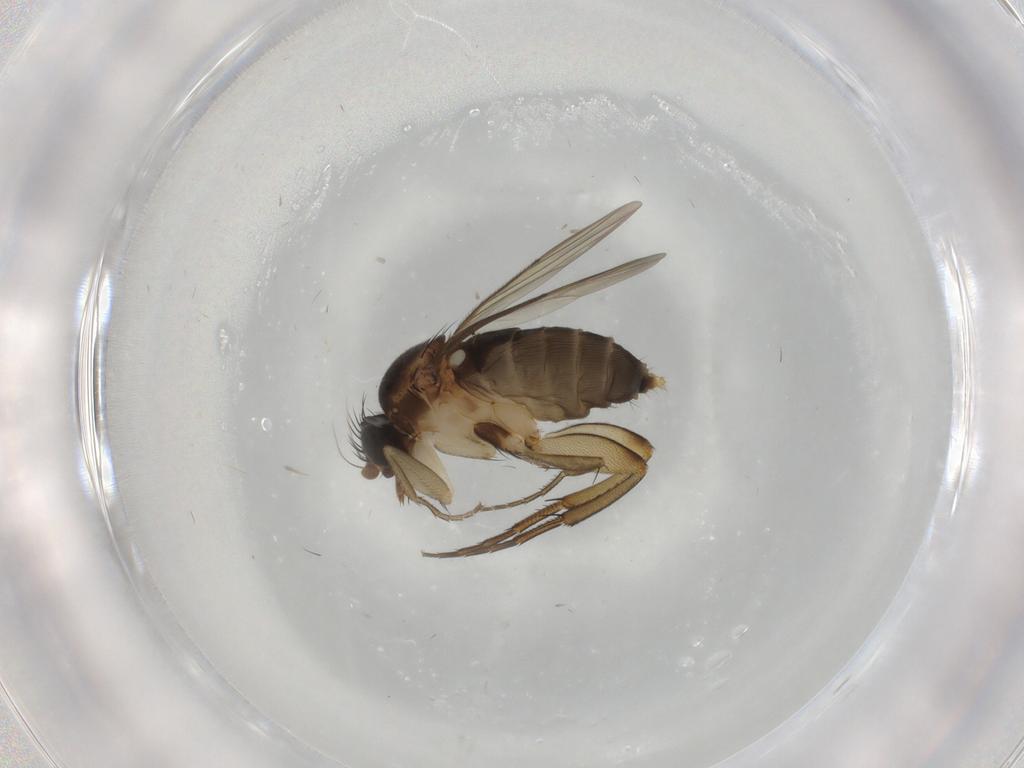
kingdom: Animalia
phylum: Arthropoda
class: Insecta
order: Diptera
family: Phoridae
